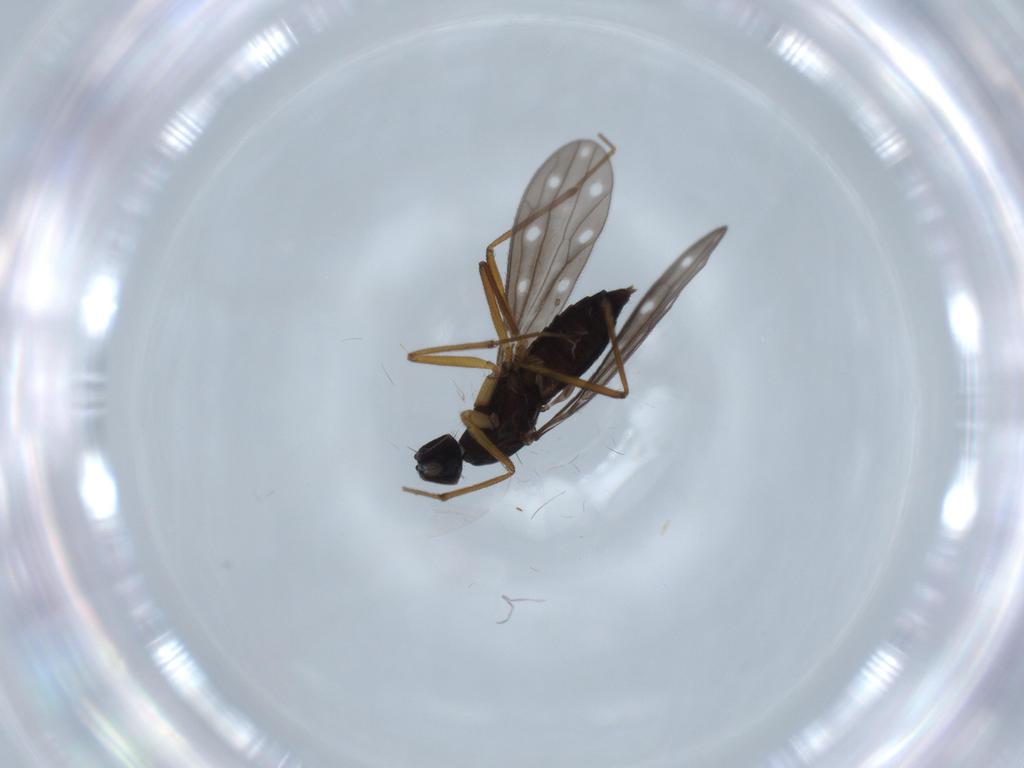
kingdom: Animalia
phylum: Arthropoda
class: Insecta
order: Diptera
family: Empididae
